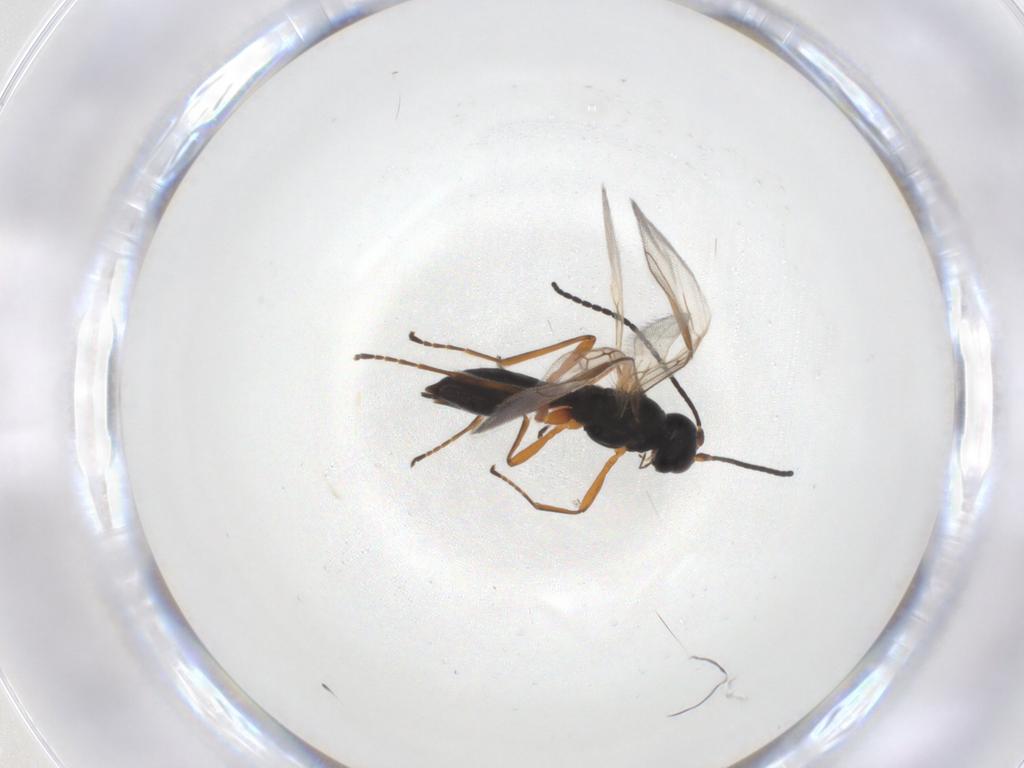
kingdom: Animalia
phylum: Arthropoda
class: Insecta
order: Hymenoptera
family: Braconidae
